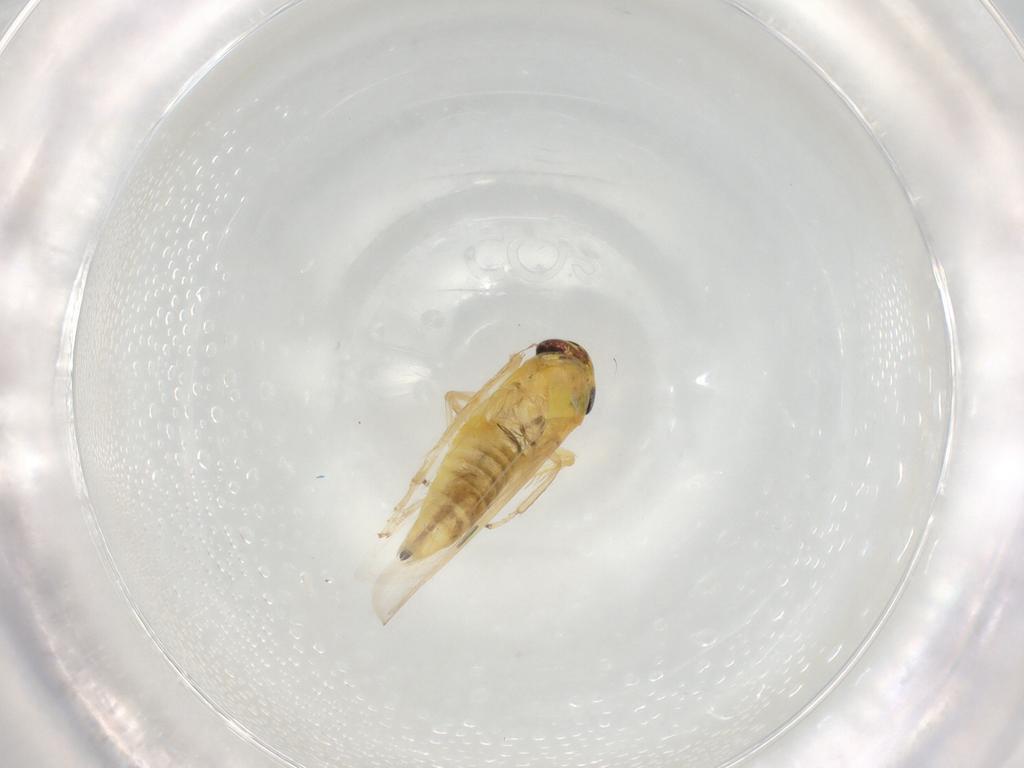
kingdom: Animalia
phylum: Arthropoda
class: Insecta
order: Hemiptera
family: Cicadellidae
